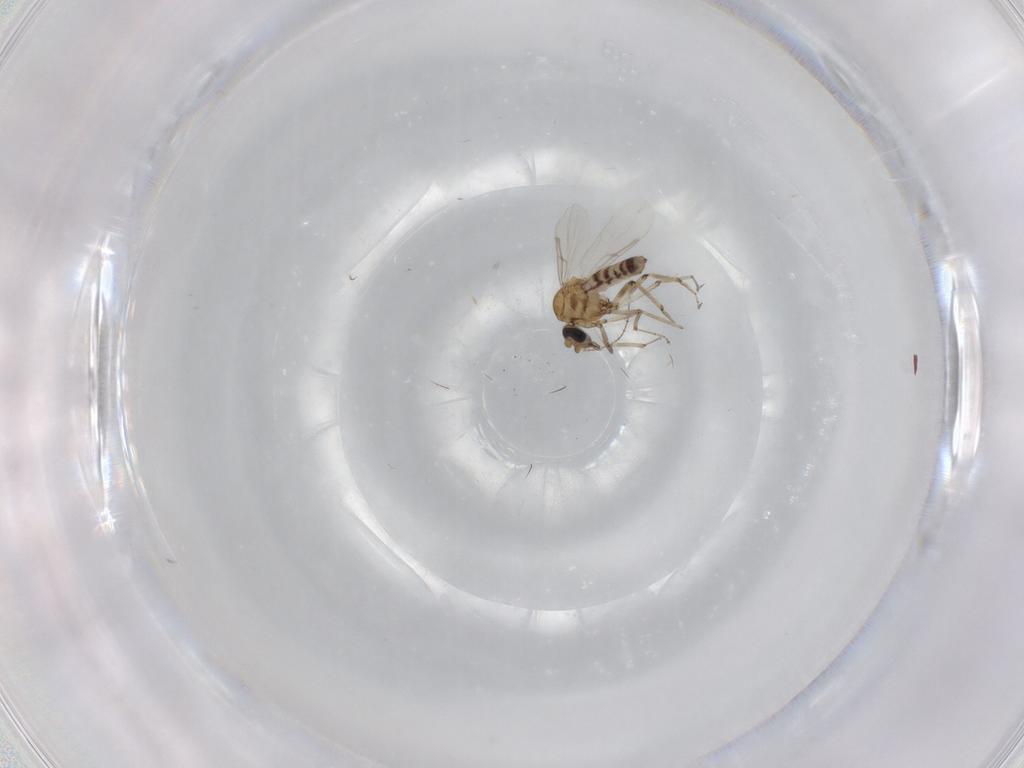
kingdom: Animalia
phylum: Arthropoda
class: Insecta
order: Diptera
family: Ceratopogonidae
